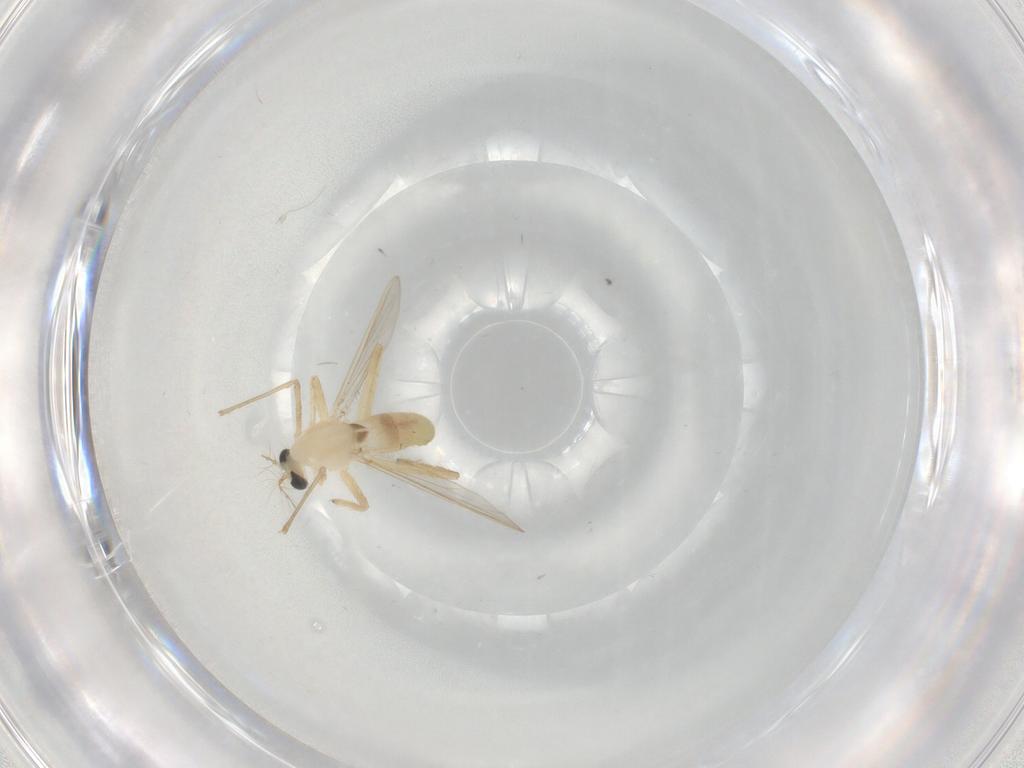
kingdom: Animalia
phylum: Arthropoda
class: Insecta
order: Diptera
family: Chironomidae
